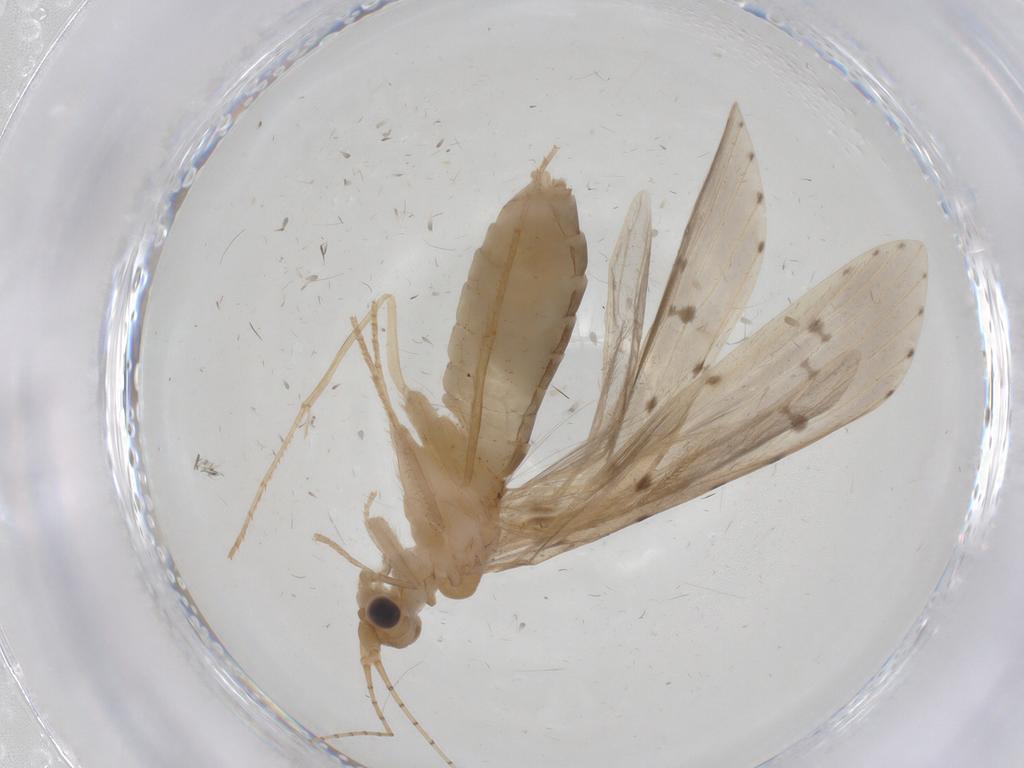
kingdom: Animalia
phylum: Arthropoda
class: Insecta
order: Trichoptera
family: Leptoceridae
